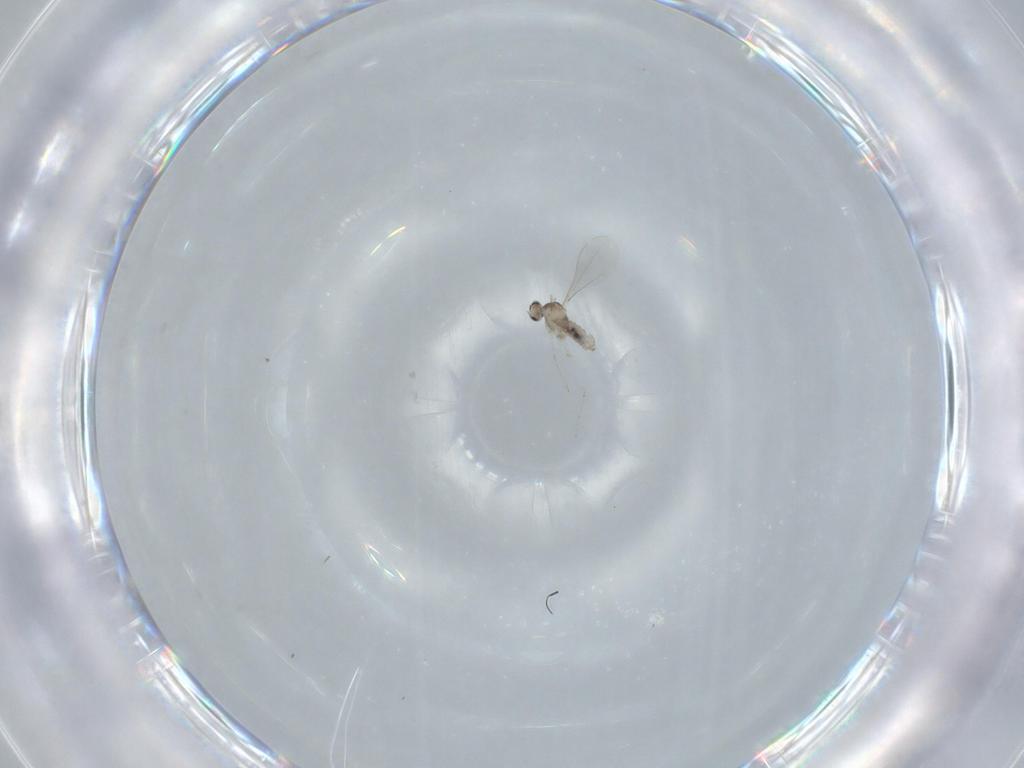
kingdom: Animalia
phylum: Arthropoda
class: Insecta
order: Diptera
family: Cecidomyiidae
